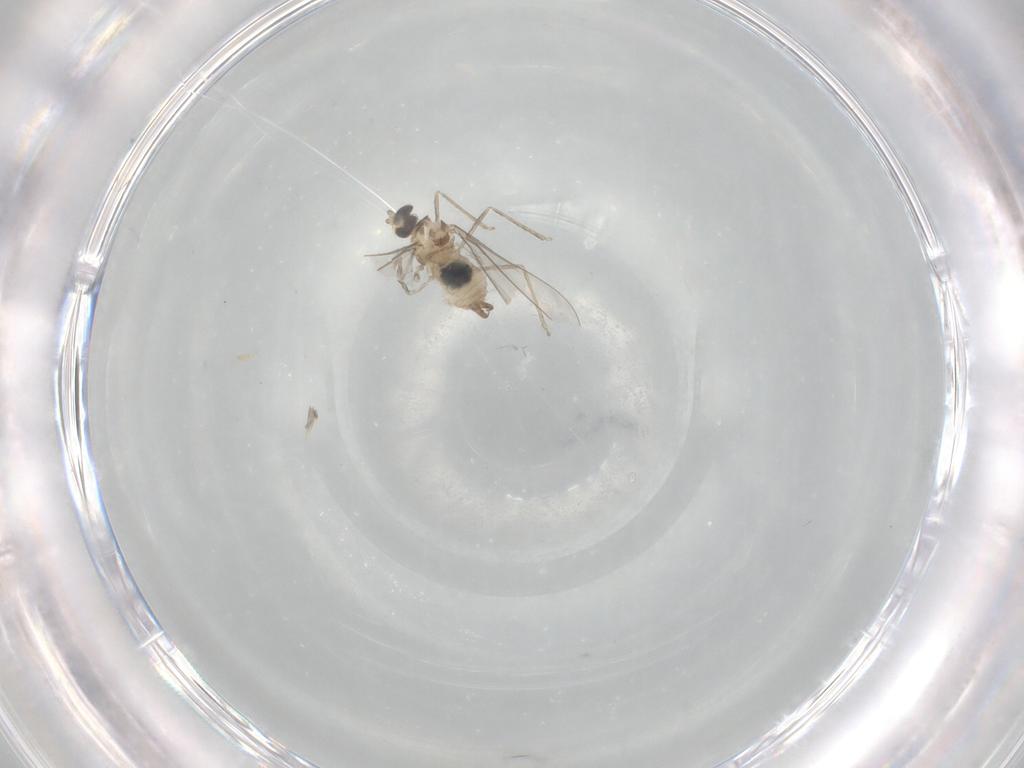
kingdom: Animalia
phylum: Arthropoda
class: Insecta
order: Diptera
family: Cecidomyiidae
